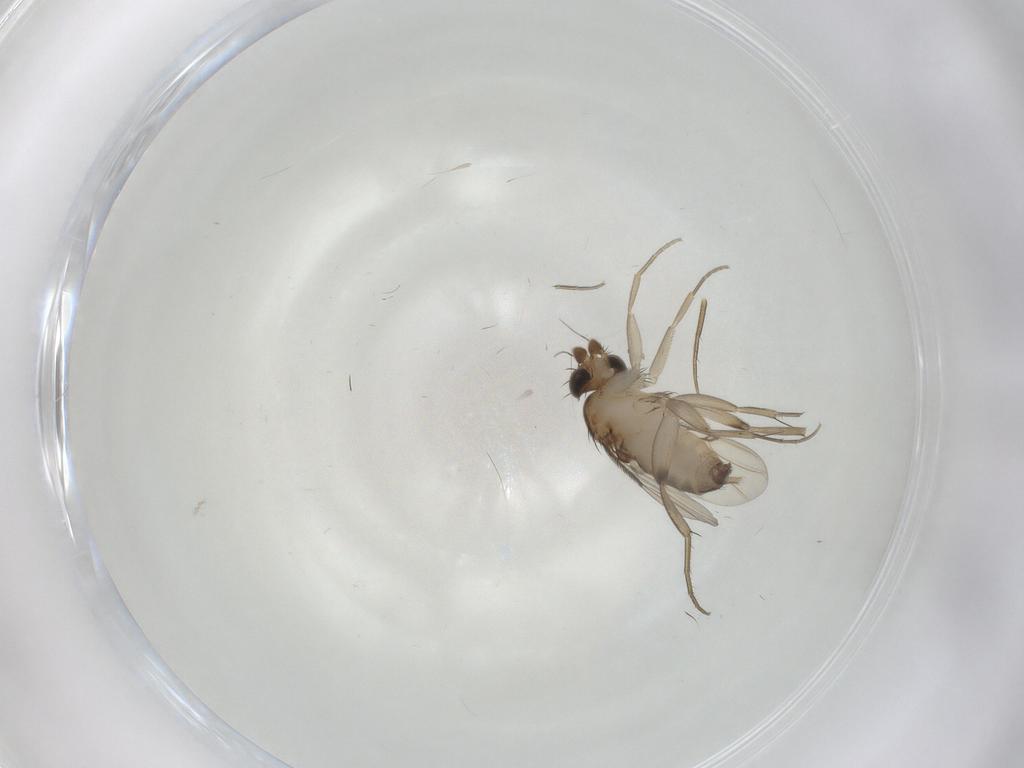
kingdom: Animalia
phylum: Arthropoda
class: Insecta
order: Diptera
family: Phoridae
